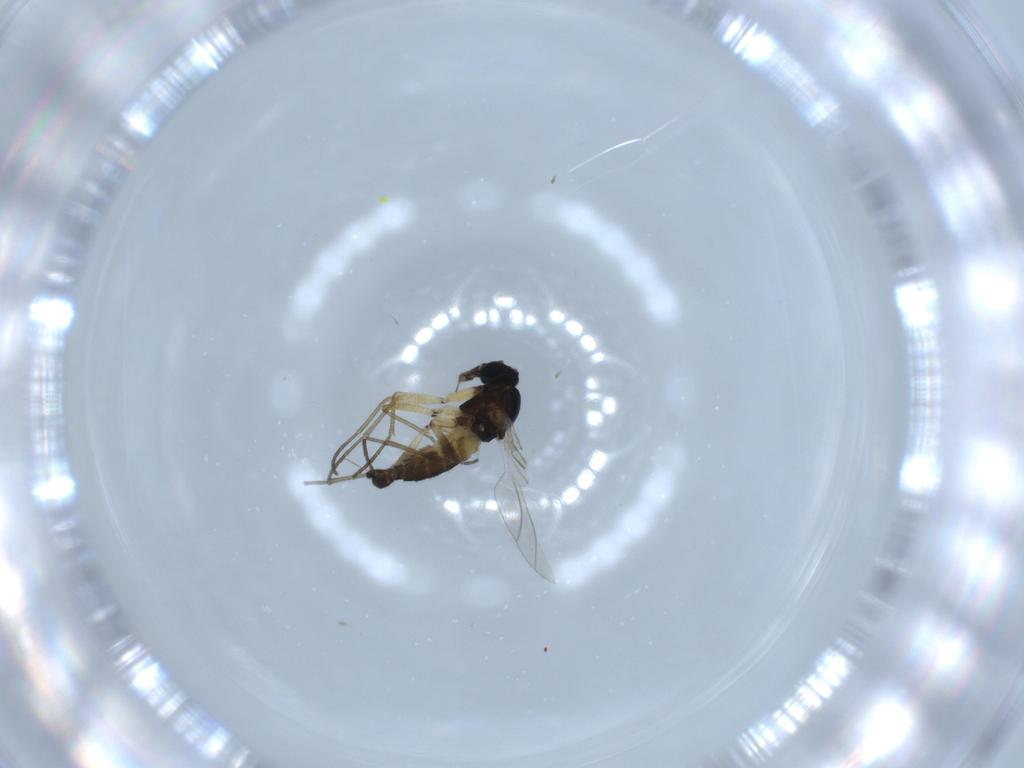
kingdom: Animalia
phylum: Arthropoda
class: Insecta
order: Diptera
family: Sciaridae
